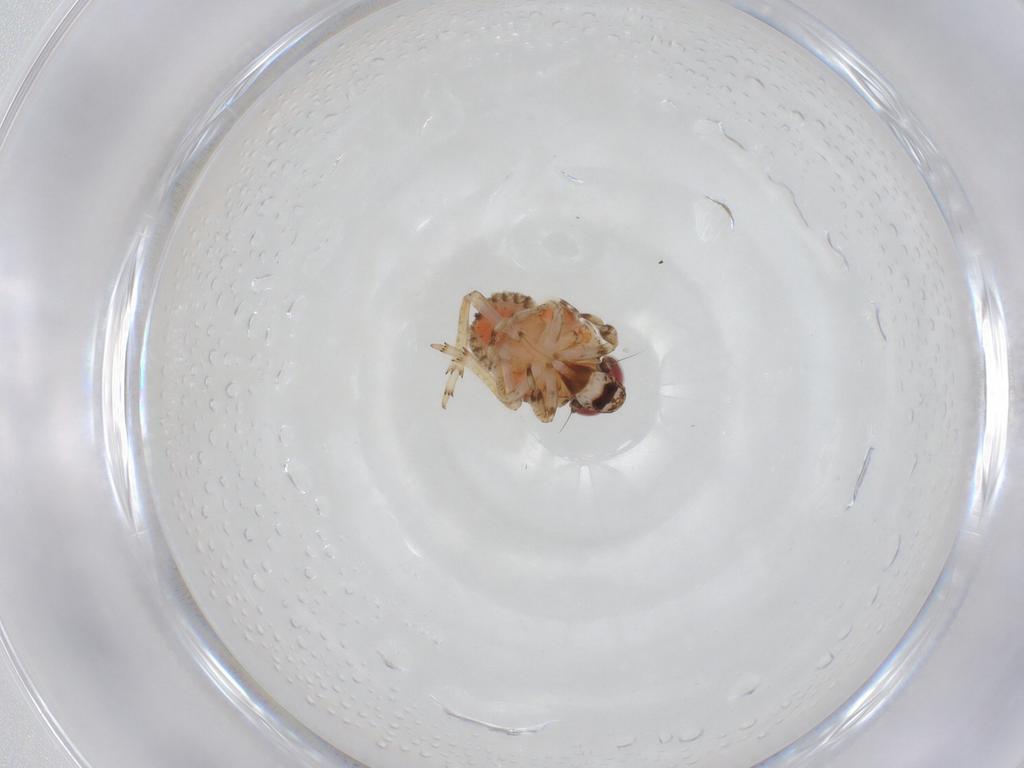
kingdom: Animalia
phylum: Arthropoda
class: Insecta
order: Hemiptera
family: Issidae
